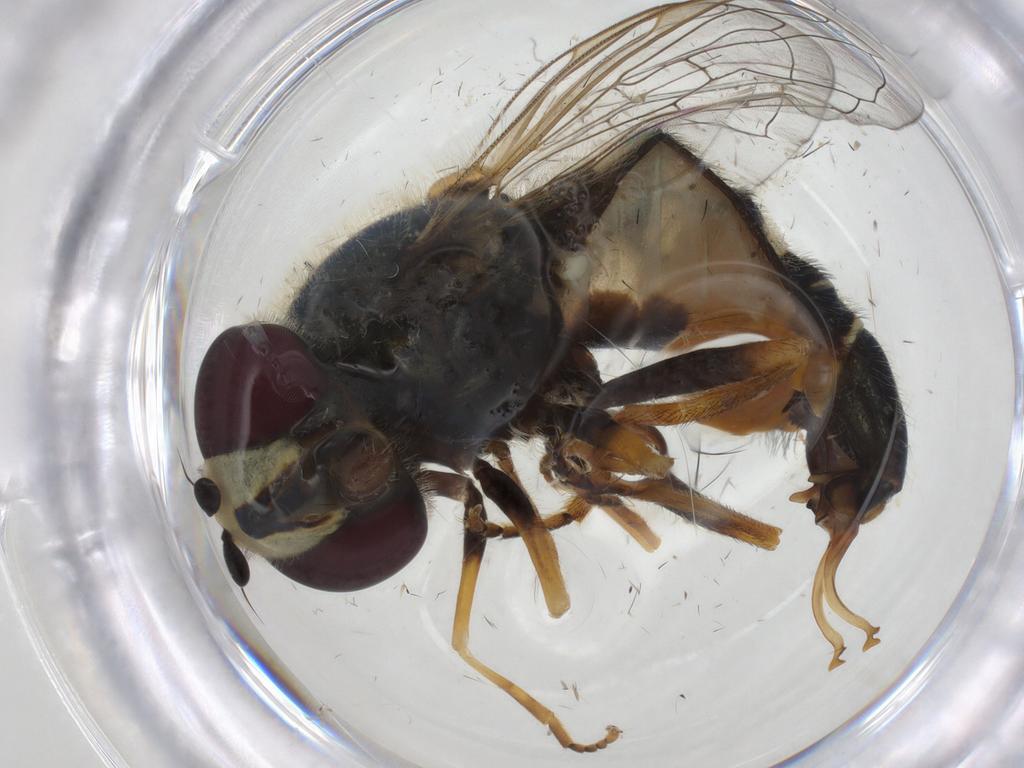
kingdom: Animalia
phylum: Arthropoda
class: Insecta
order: Diptera
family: Syrphidae
